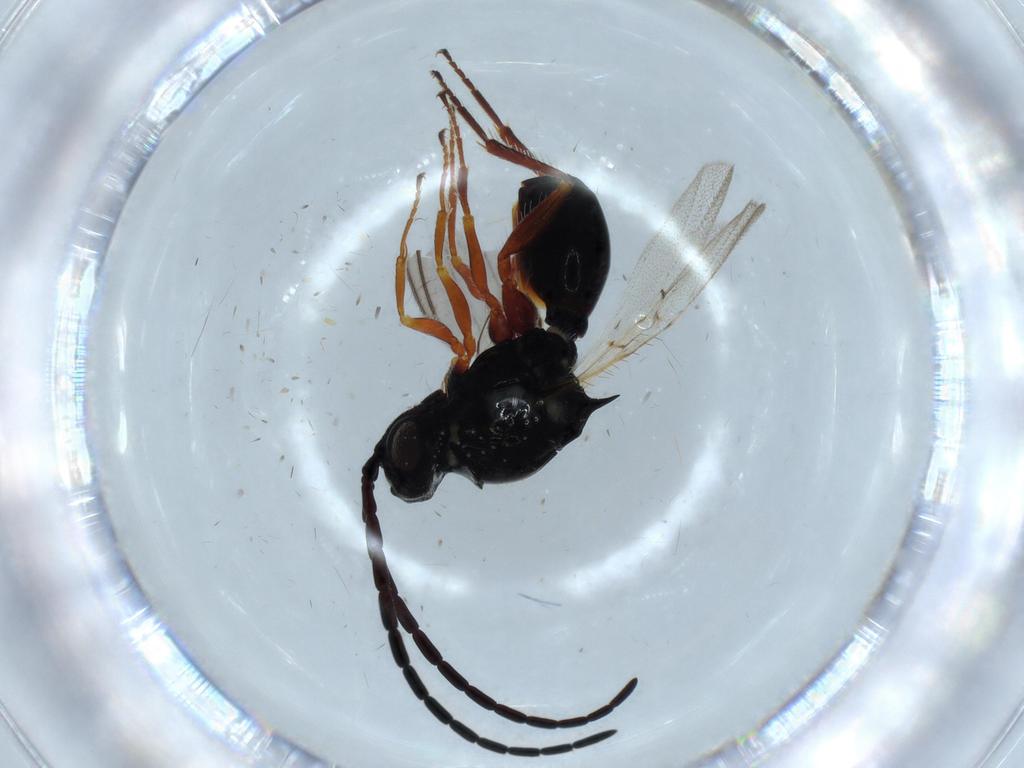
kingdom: Animalia
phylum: Arthropoda
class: Insecta
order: Hymenoptera
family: Figitidae
